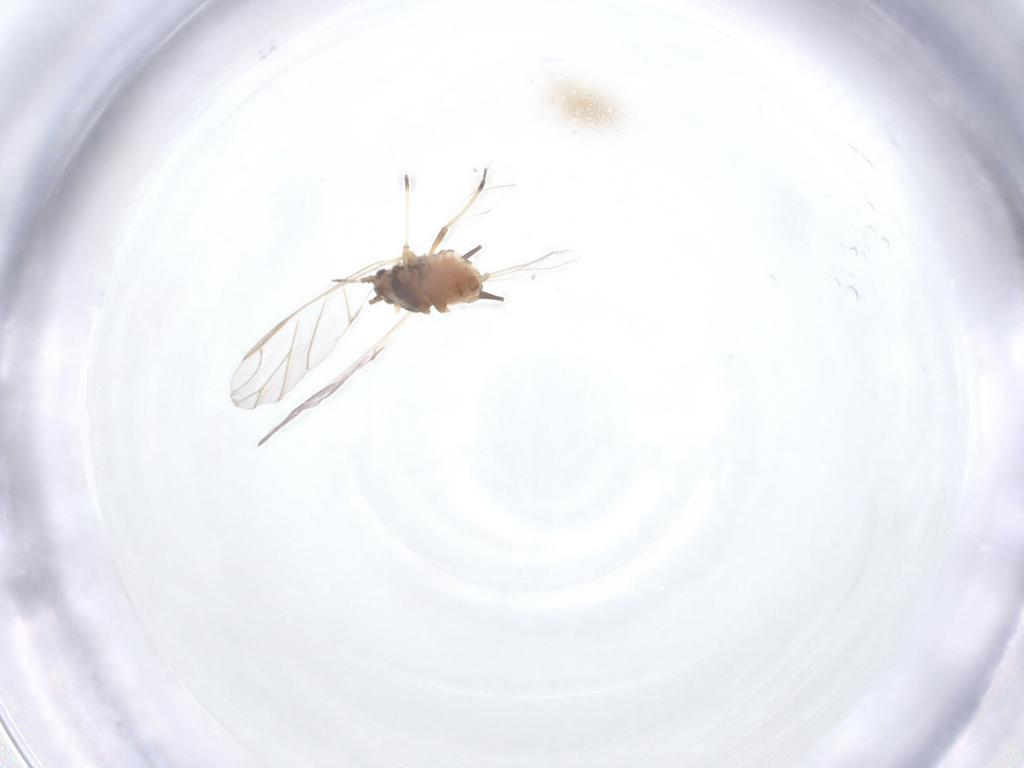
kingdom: Animalia
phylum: Arthropoda
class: Insecta
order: Hemiptera
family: Aphididae
